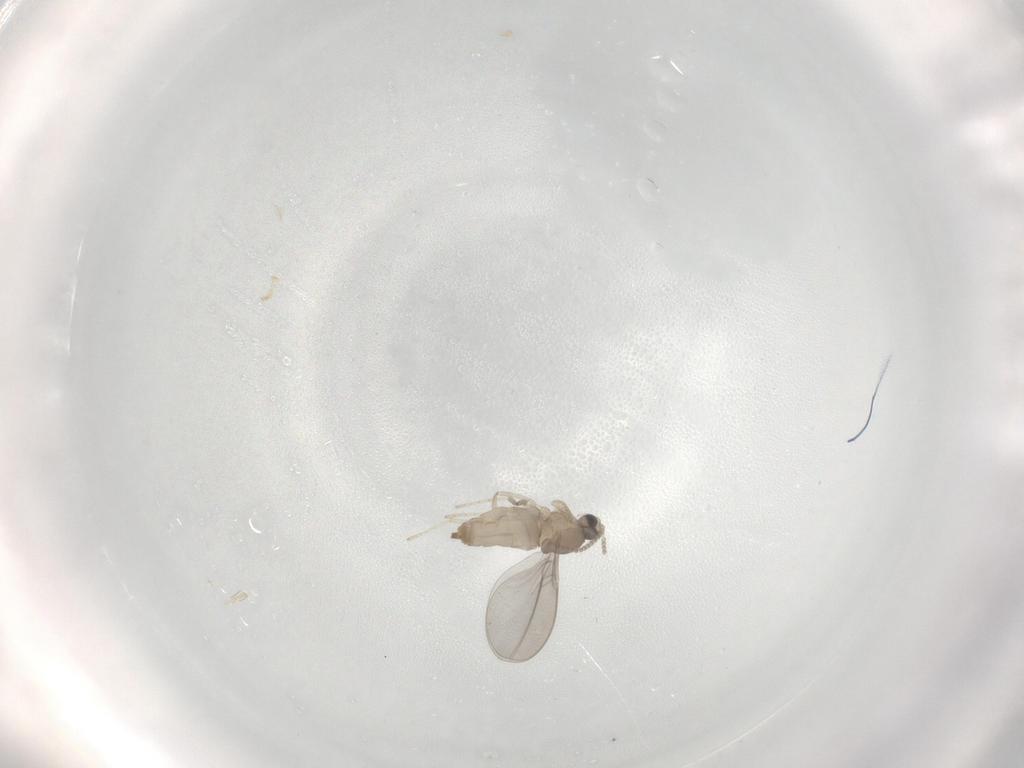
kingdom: Animalia
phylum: Arthropoda
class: Insecta
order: Diptera
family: Cecidomyiidae
